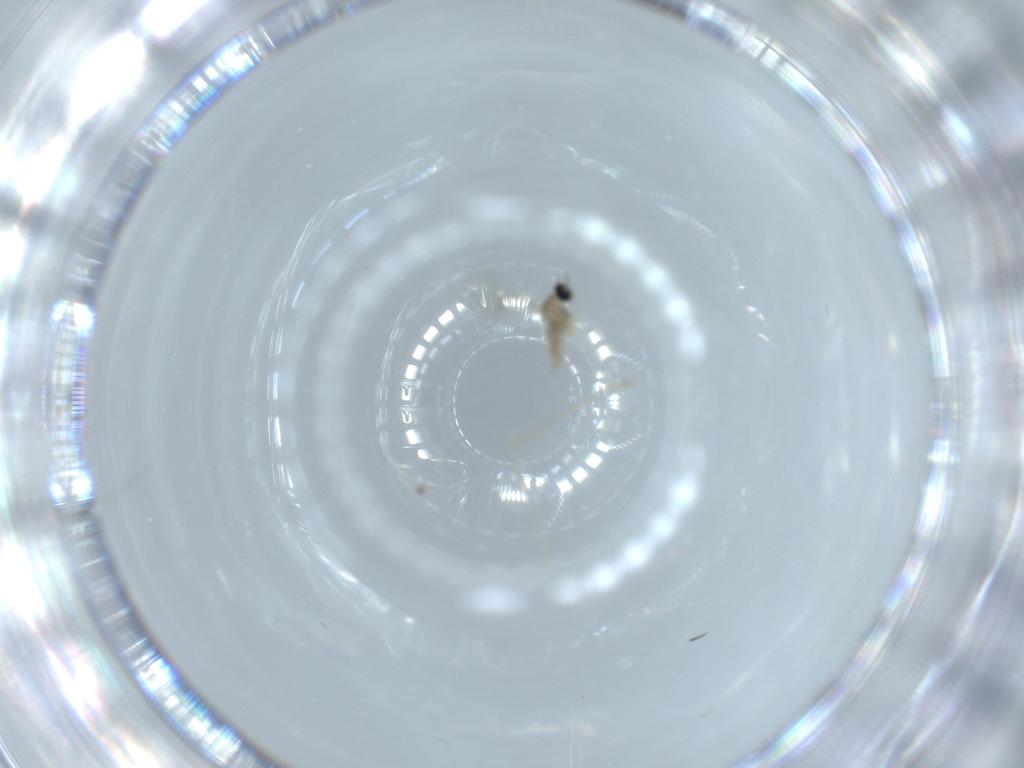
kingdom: Animalia
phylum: Arthropoda
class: Insecta
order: Diptera
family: Cecidomyiidae
